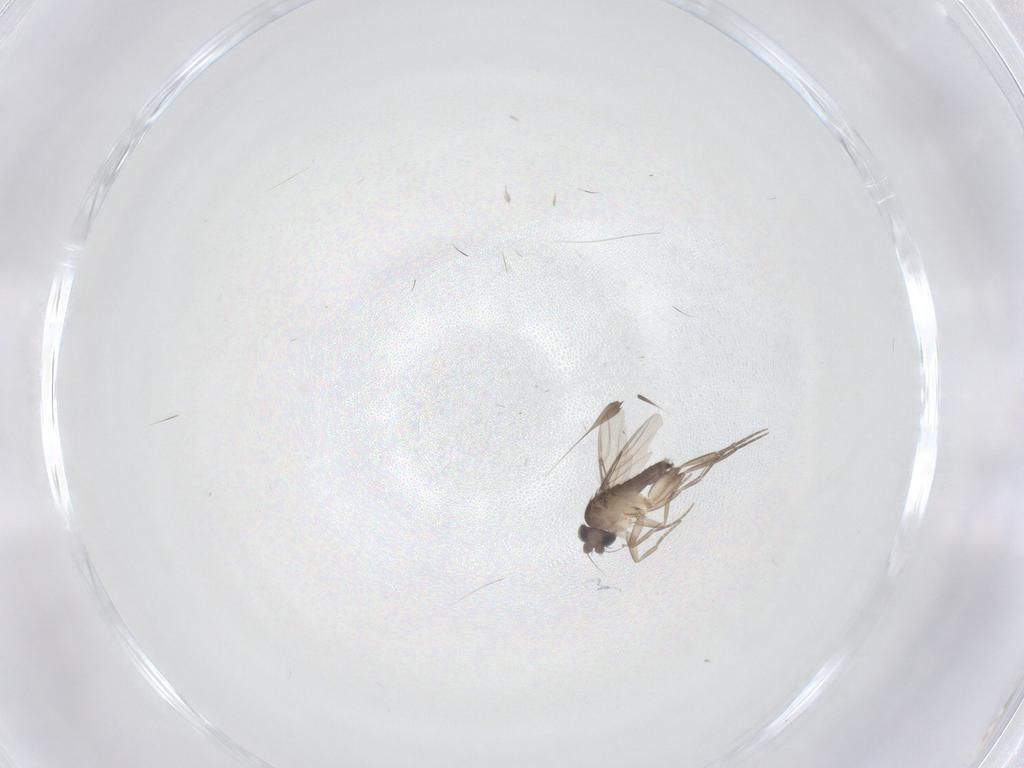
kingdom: Animalia
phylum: Arthropoda
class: Insecta
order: Diptera
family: Phoridae
